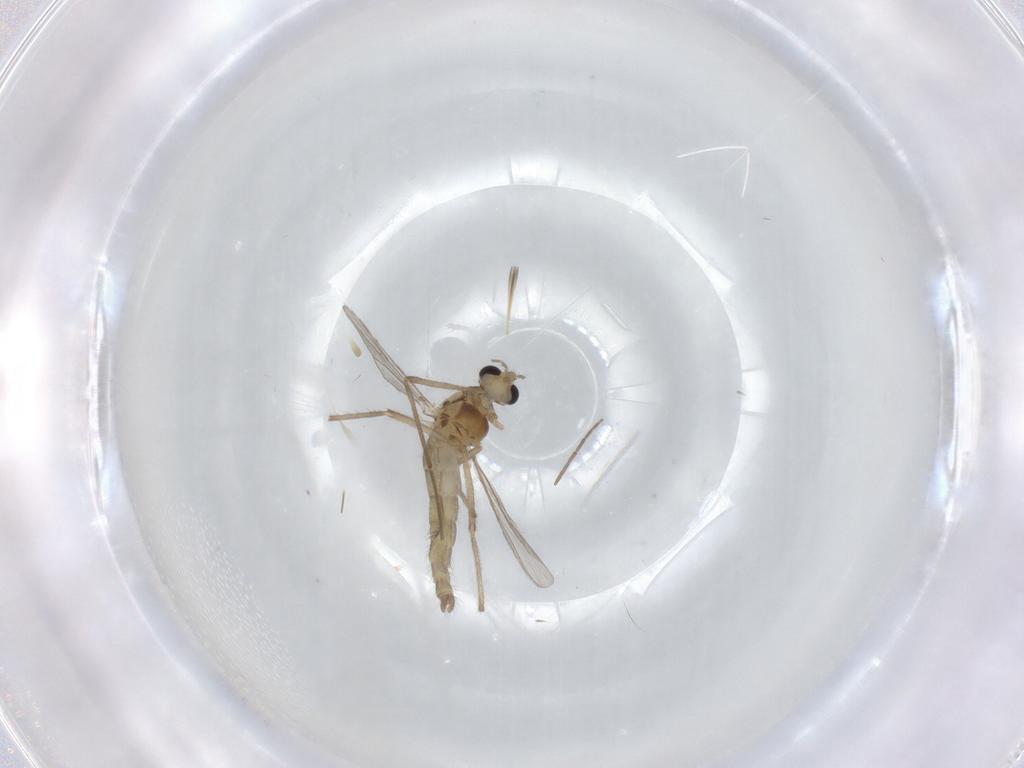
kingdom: Animalia
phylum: Arthropoda
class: Insecta
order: Diptera
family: Chironomidae
